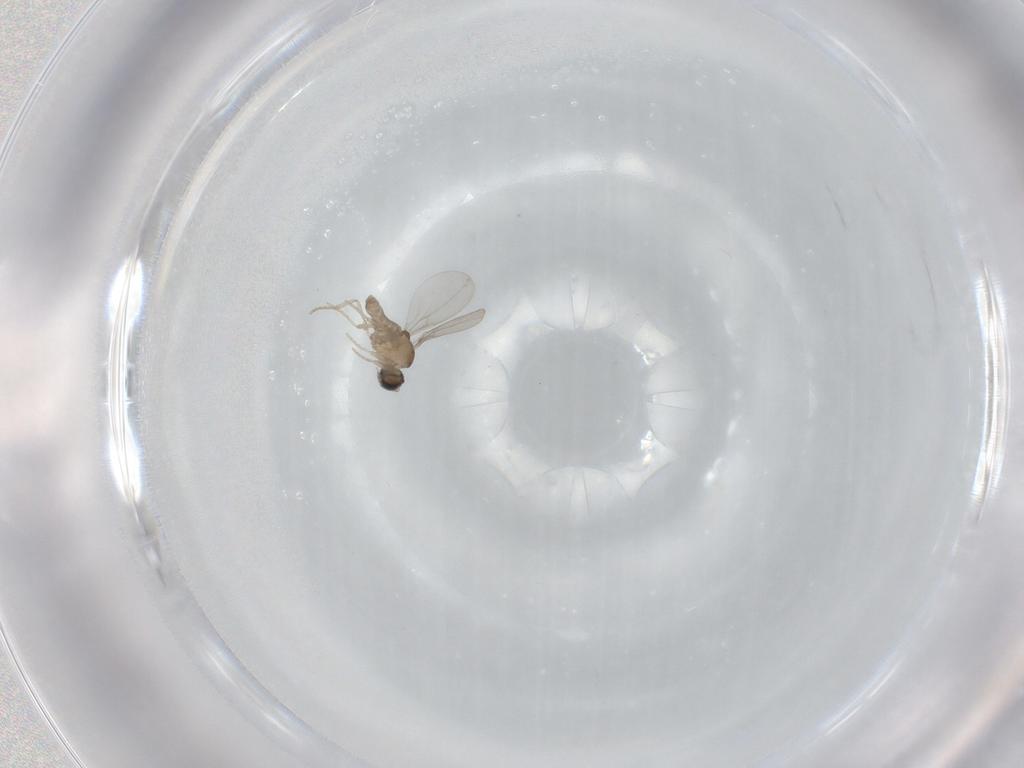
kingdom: Animalia
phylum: Arthropoda
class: Insecta
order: Diptera
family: Cecidomyiidae
